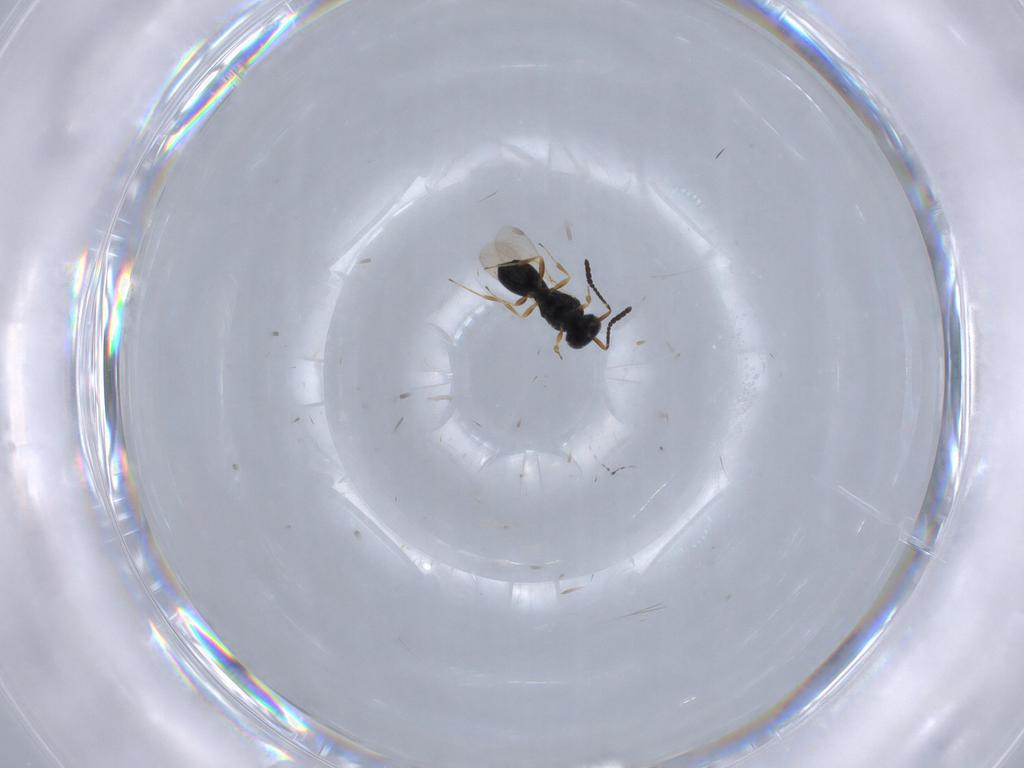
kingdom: Animalia
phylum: Arthropoda
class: Insecta
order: Hymenoptera
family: Scelionidae
